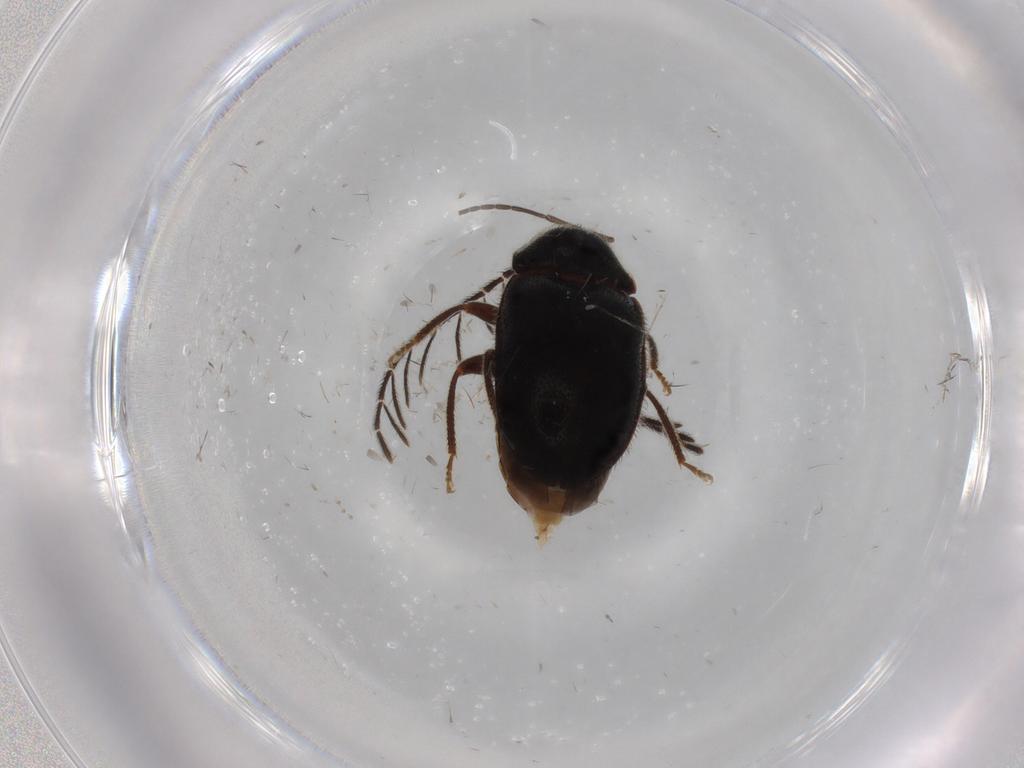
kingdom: Animalia
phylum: Arthropoda
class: Insecta
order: Coleoptera
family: Ptilodactylidae
